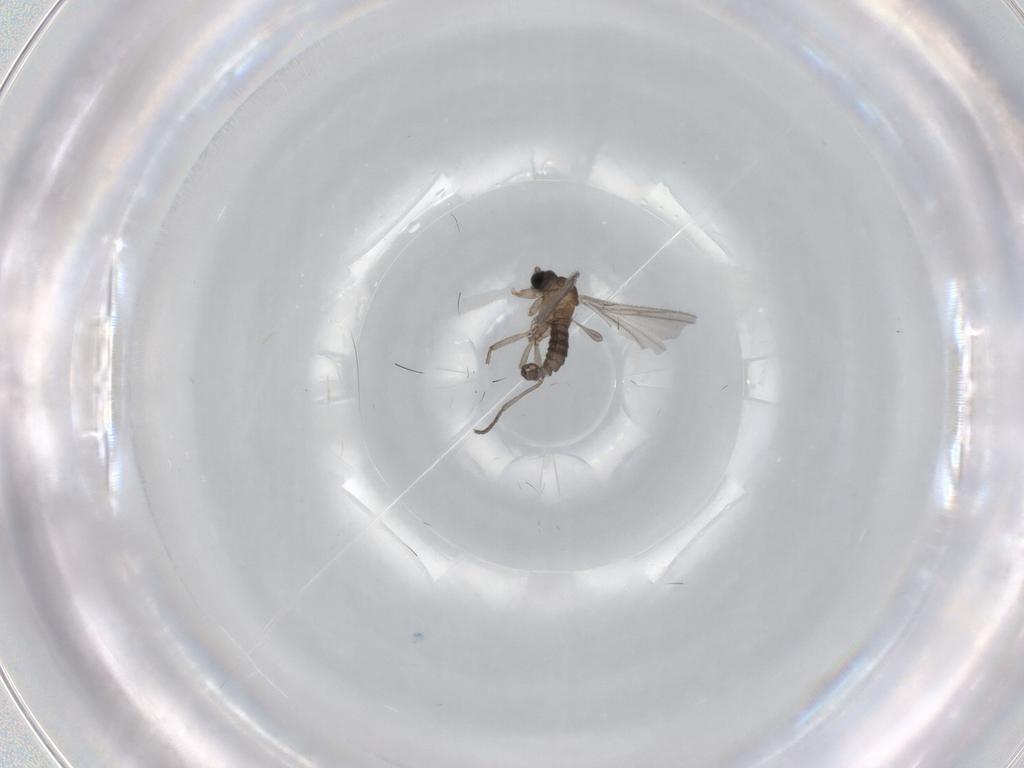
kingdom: Animalia
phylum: Arthropoda
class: Insecta
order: Diptera
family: Sciaridae
